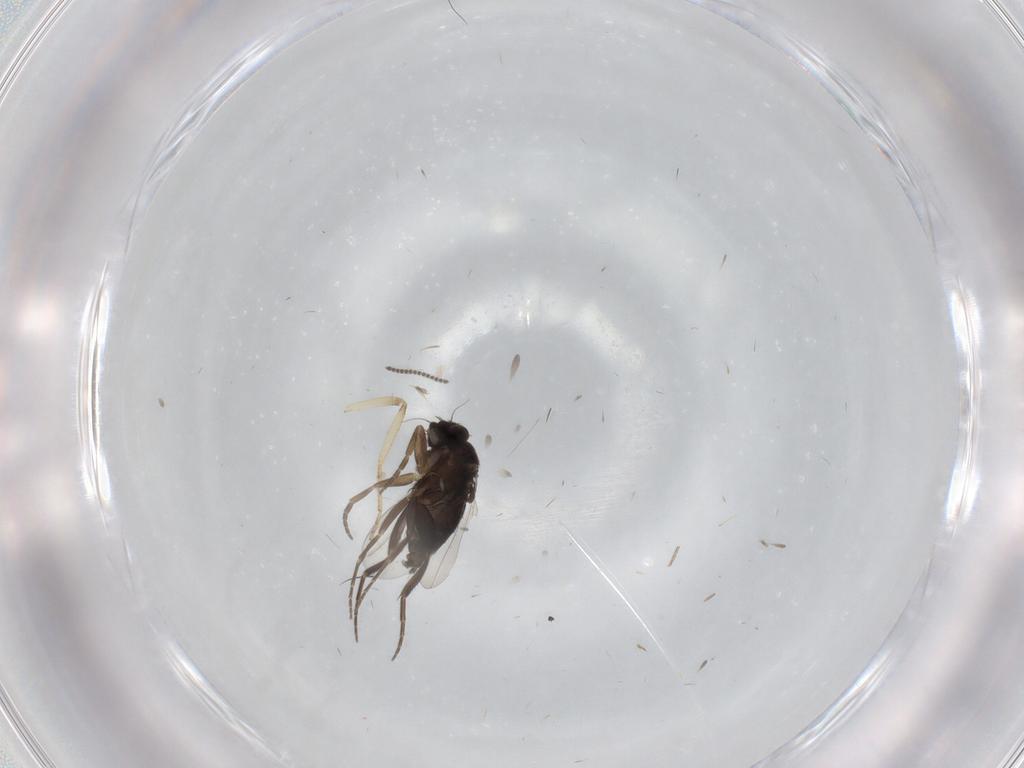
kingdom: Animalia
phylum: Arthropoda
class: Insecta
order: Diptera
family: Phoridae
